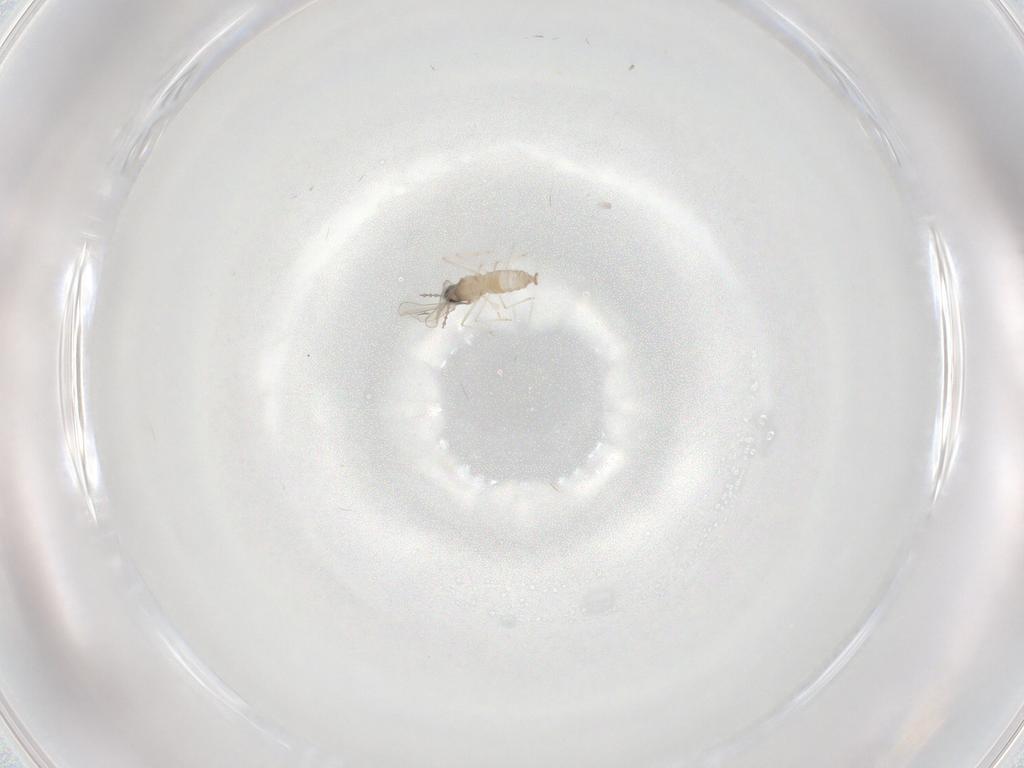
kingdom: Animalia
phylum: Arthropoda
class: Insecta
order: Diptera
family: Cecidomyiidae
